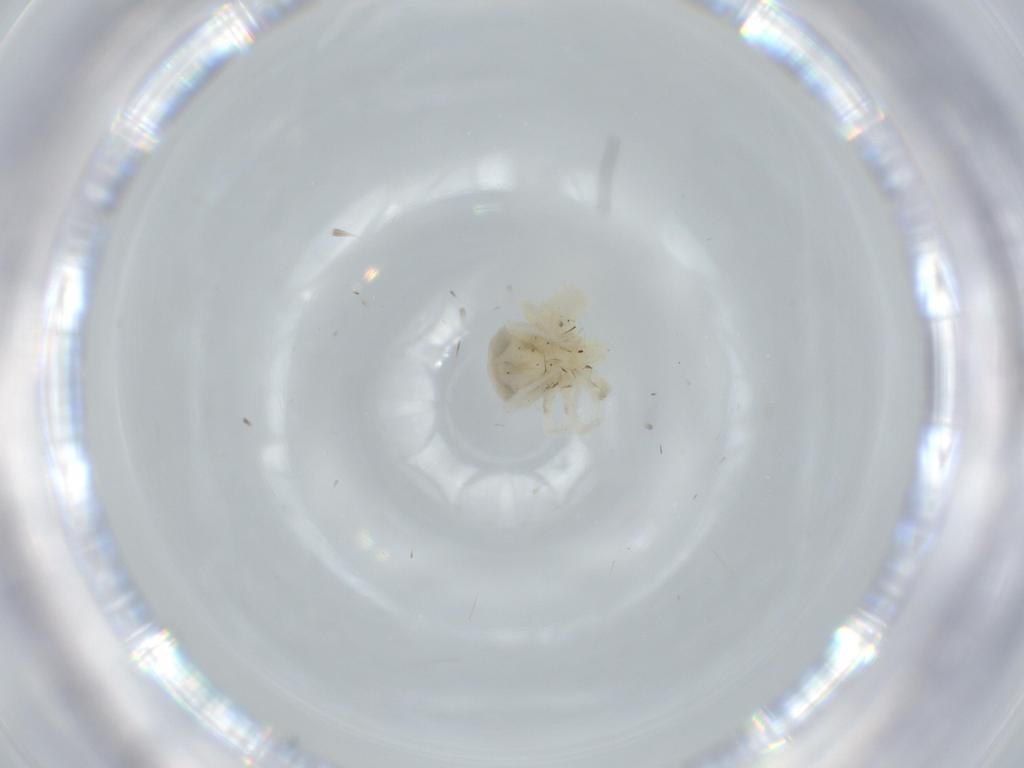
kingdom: Animalia
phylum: Arthropoda
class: Arachnida
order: Trombidiformes
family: Anystidae
